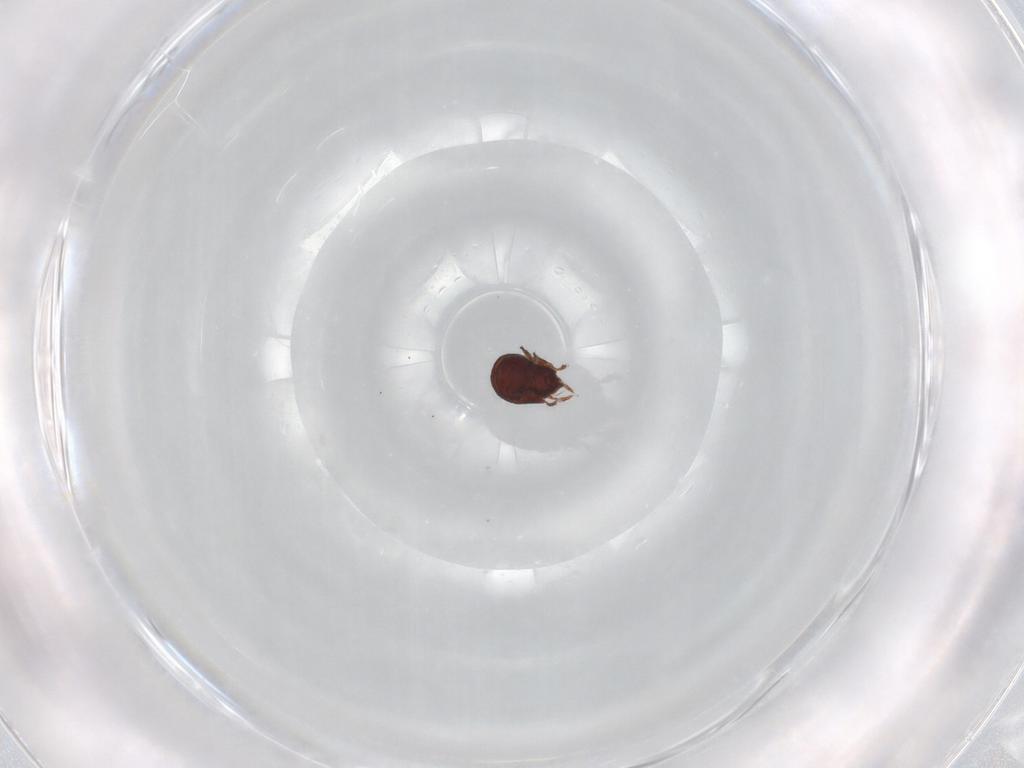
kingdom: Animalia
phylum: Arthropoda
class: Arachnida
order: Sarcoptiformes
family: Phenopelopidae
